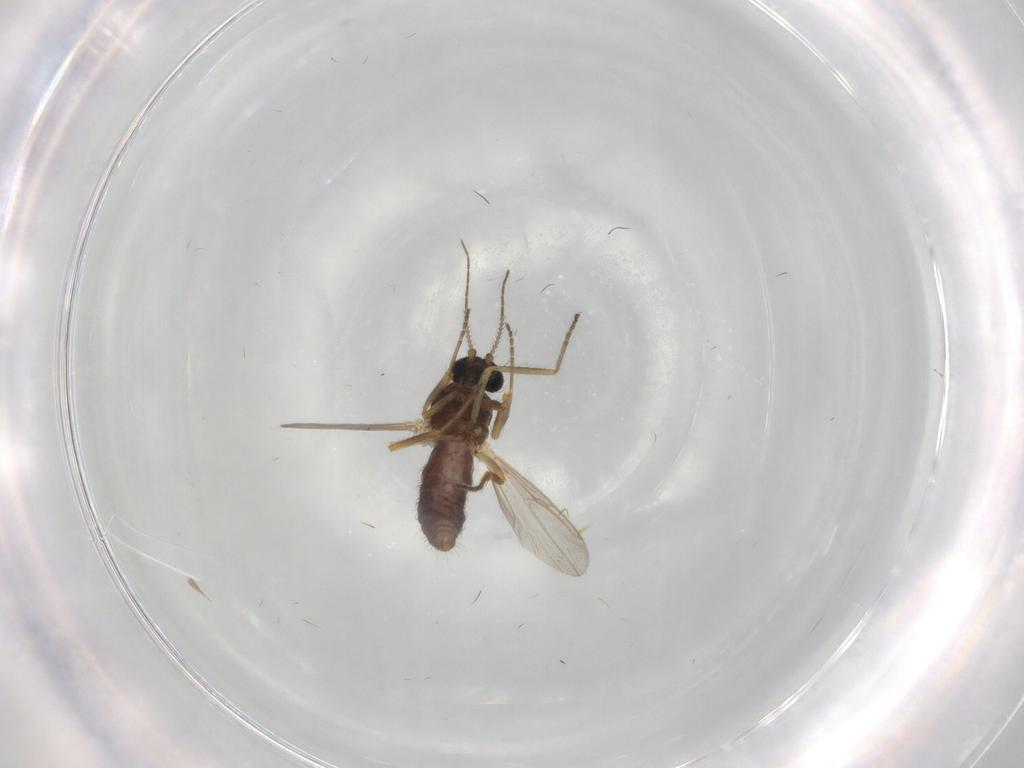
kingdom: Animalia
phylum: Arthropoda
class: Insecta
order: Diptera
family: Ceratopogonidae
